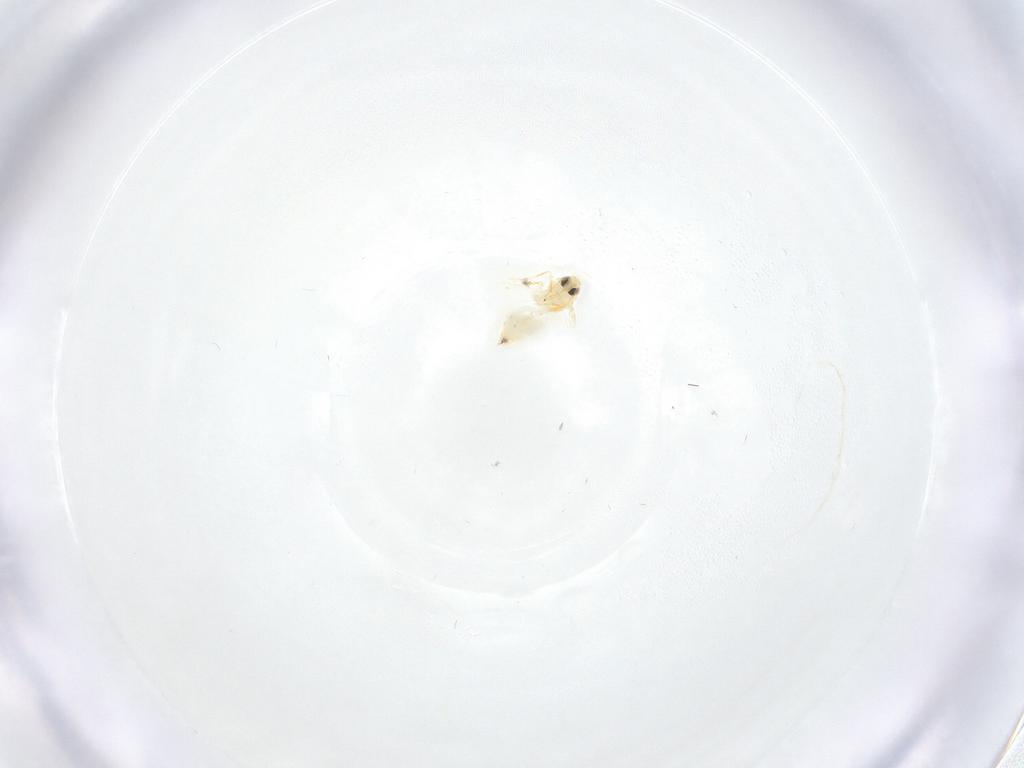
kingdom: Animalia
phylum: Arthropoda
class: Insecta
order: Hemiptera
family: Aleyrodidae
